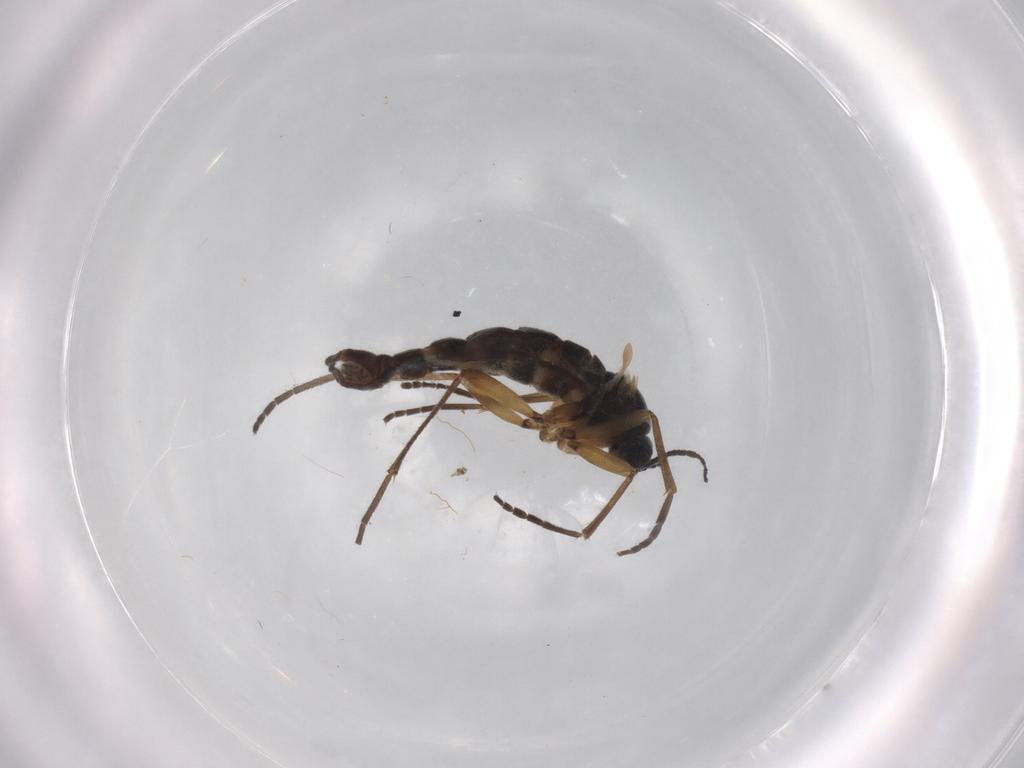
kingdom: Animalia
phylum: Arthropoda
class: Insecta
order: Diptera
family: Sciaridae
